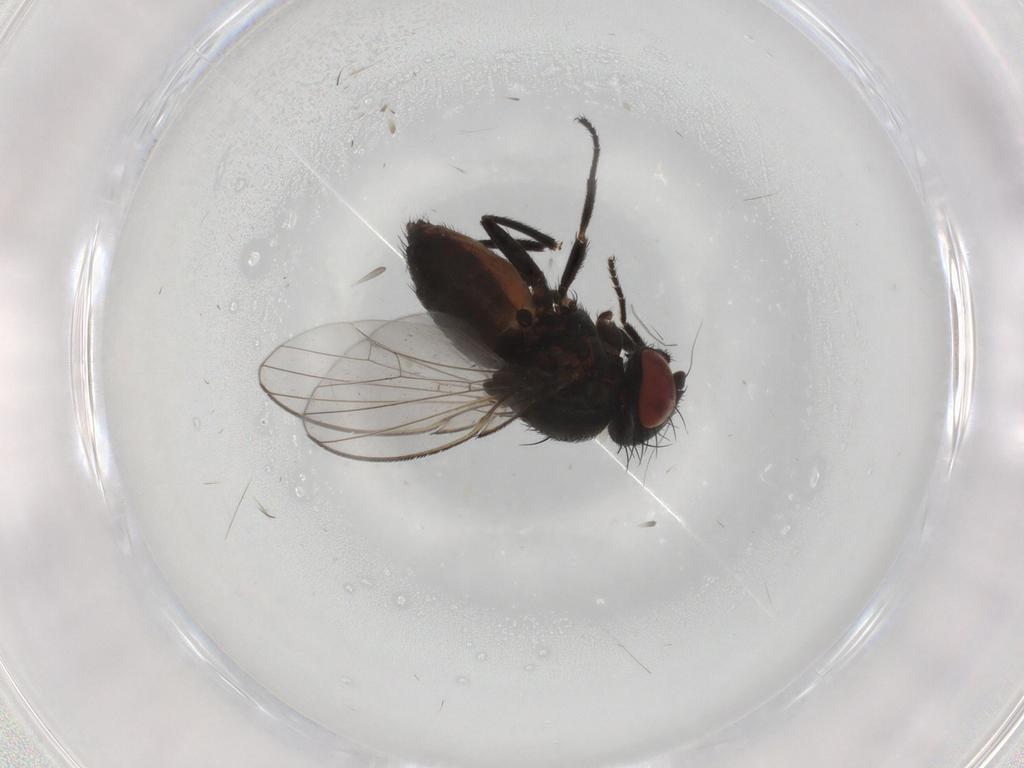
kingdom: Animalia
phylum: Arthropoda
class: Insecta
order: Diptera
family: Milichiidae
